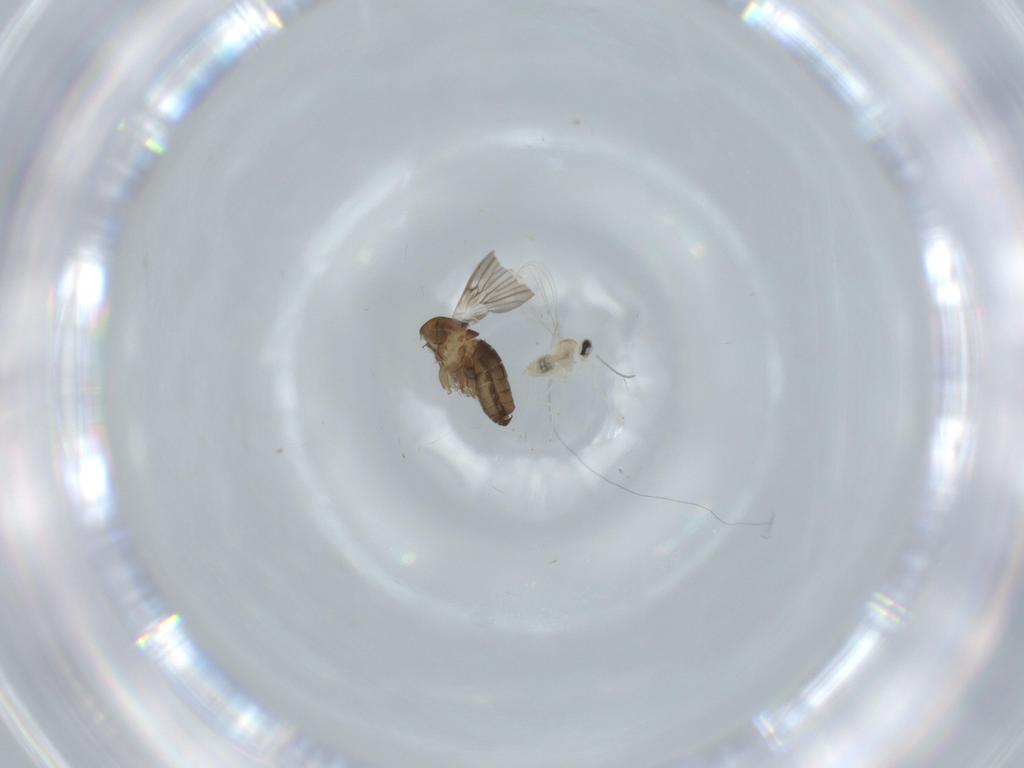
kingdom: Animalia
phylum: Arthropoda
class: Insecta
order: Diptera
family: Cecidomyiidae
